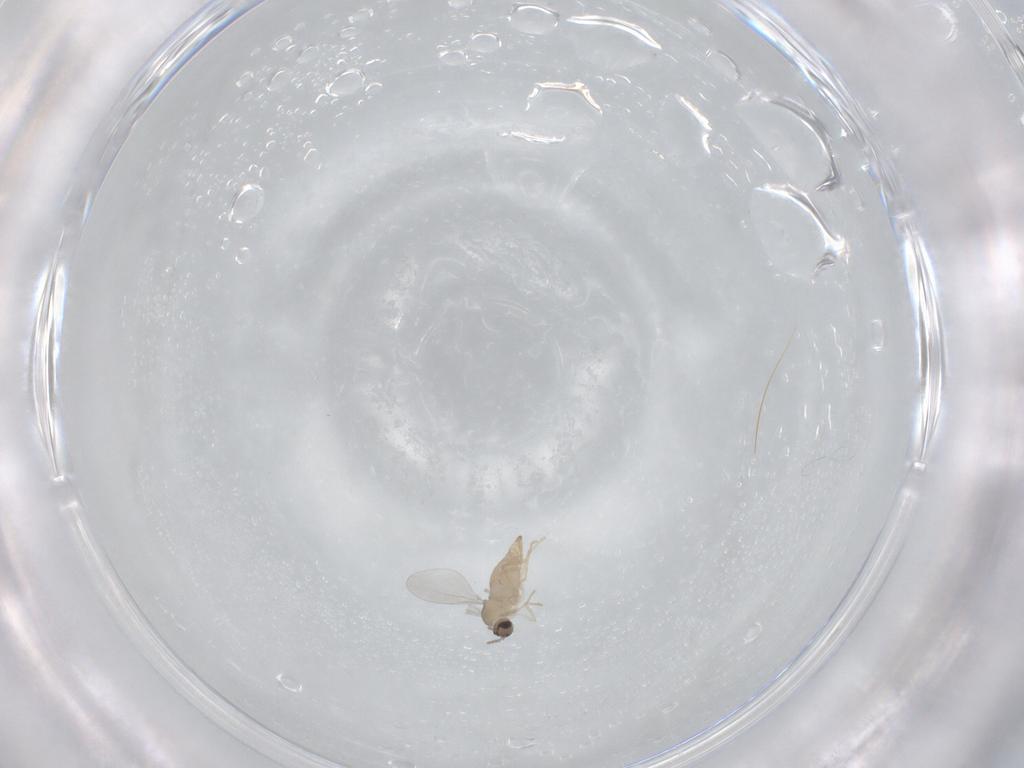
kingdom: Animalia
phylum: Arthropoda
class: Insecta
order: Diptera
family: Cecidomyiidae
